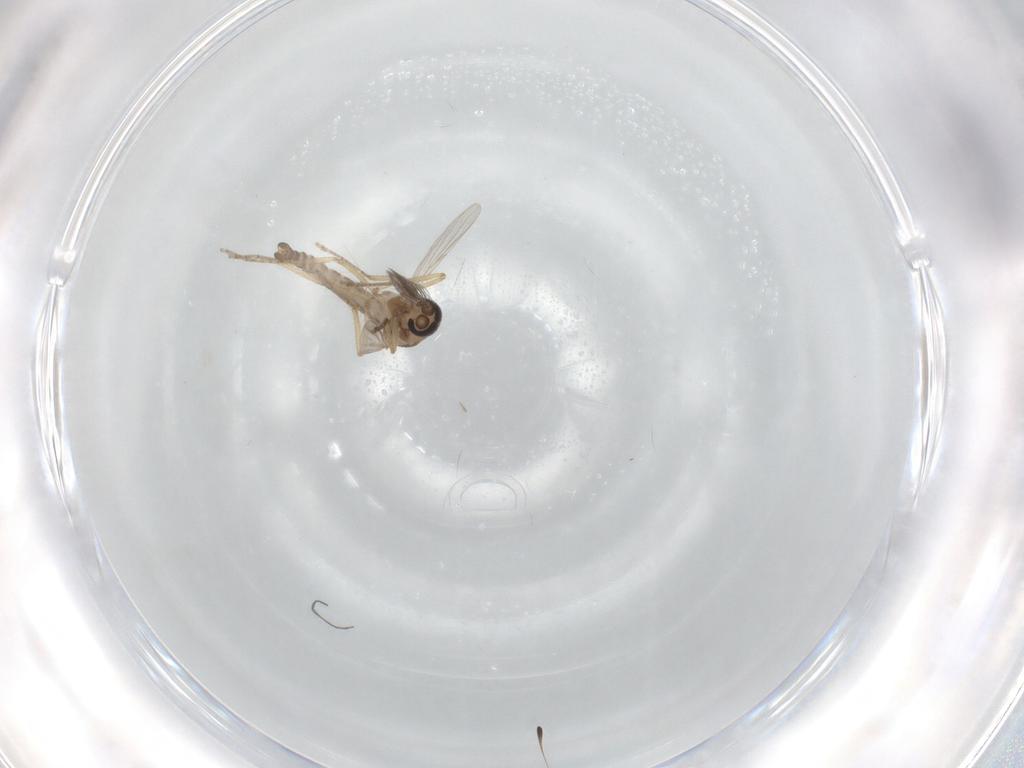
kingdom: Animalia
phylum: Arthropoda
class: Insecta
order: Diptera
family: Ceratopogonidae
